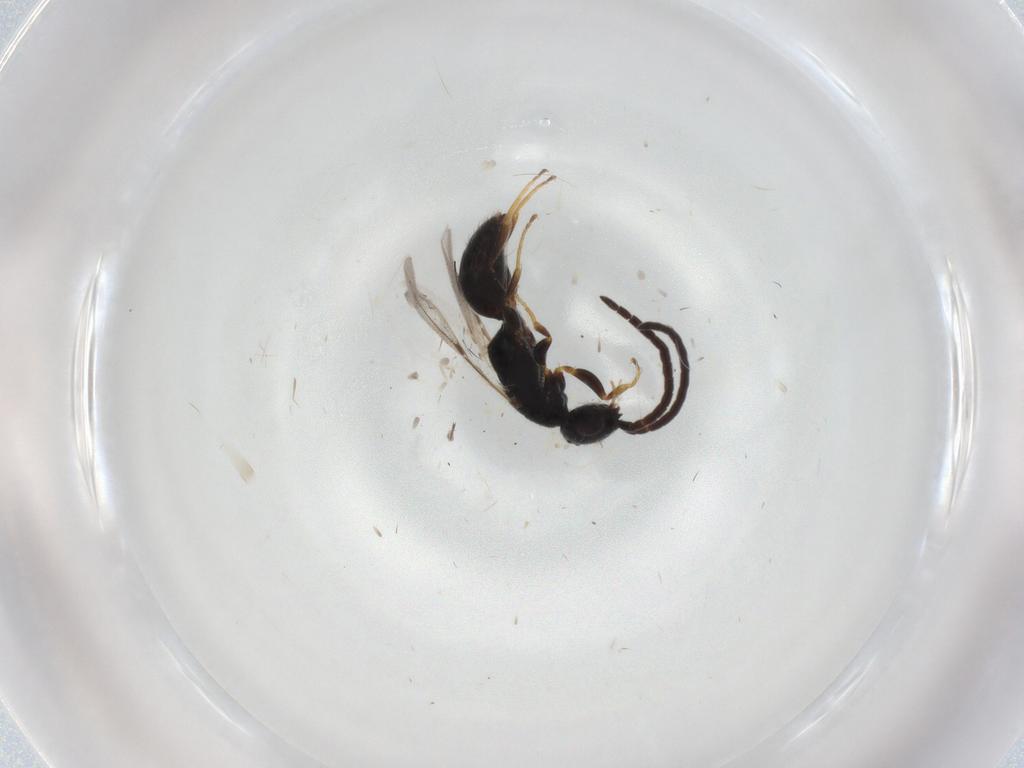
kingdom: Animalia
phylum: Arthropoda
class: Insecta
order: Hymenoptera
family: Bethylidae
